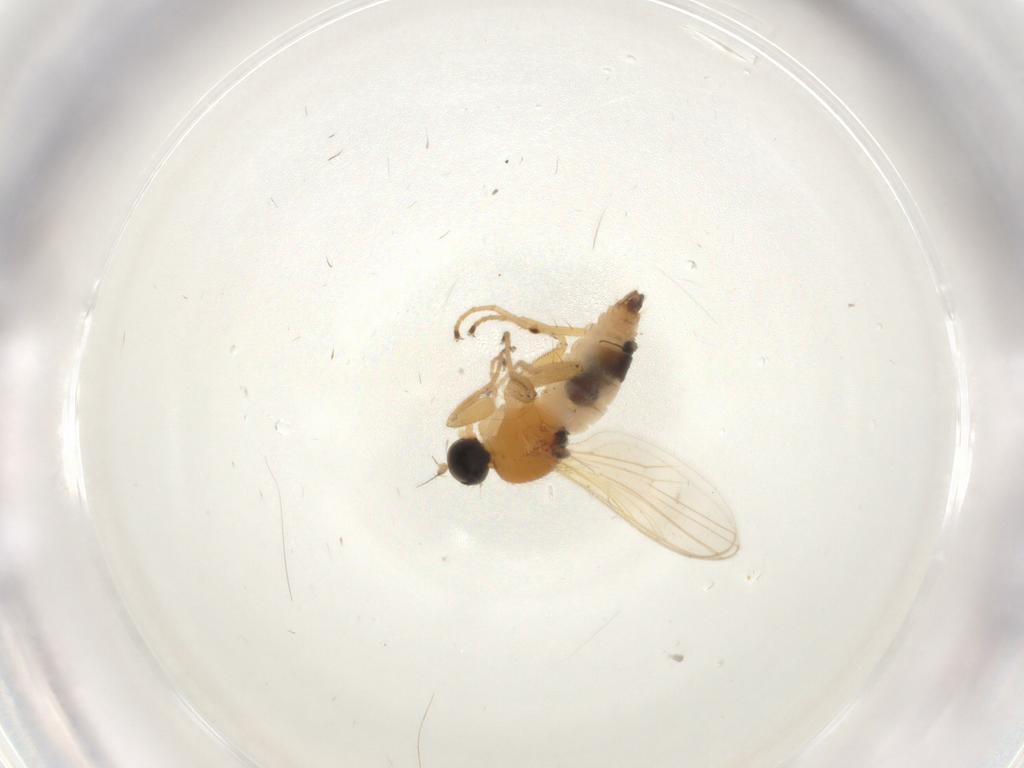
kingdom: Animalia
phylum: Arthropoda
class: Insecta
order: Diptera
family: Hybotidae
